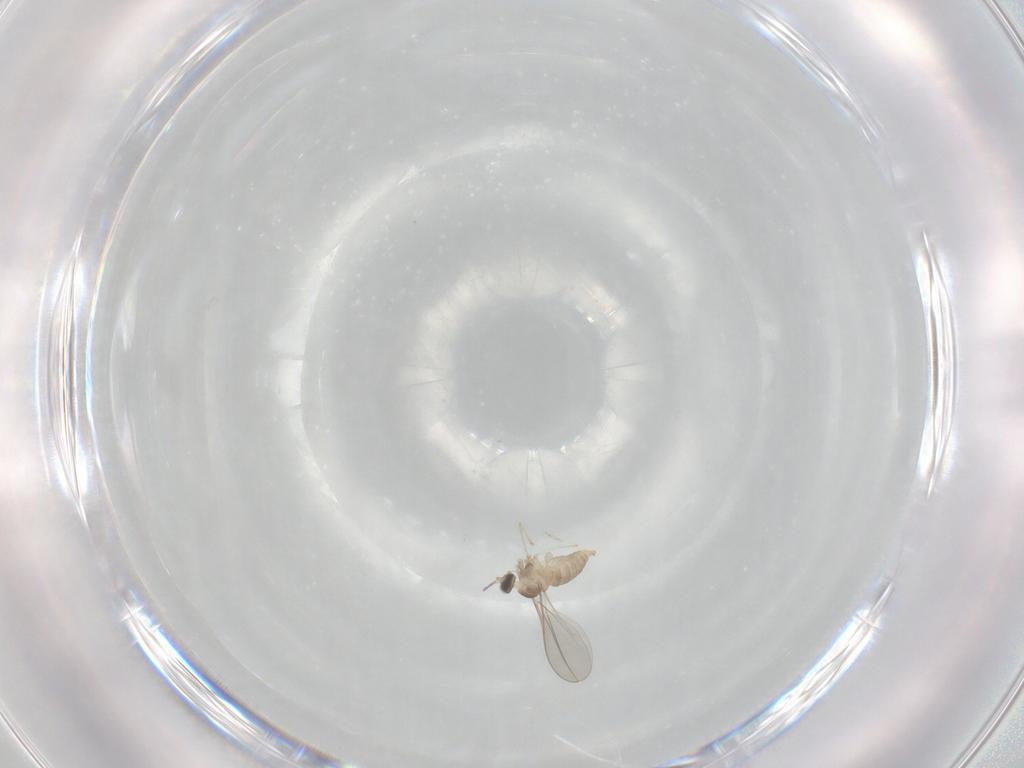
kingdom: Animalia
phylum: Arthropoda
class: Insecta
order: Diptera
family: Cecidomyiidae
